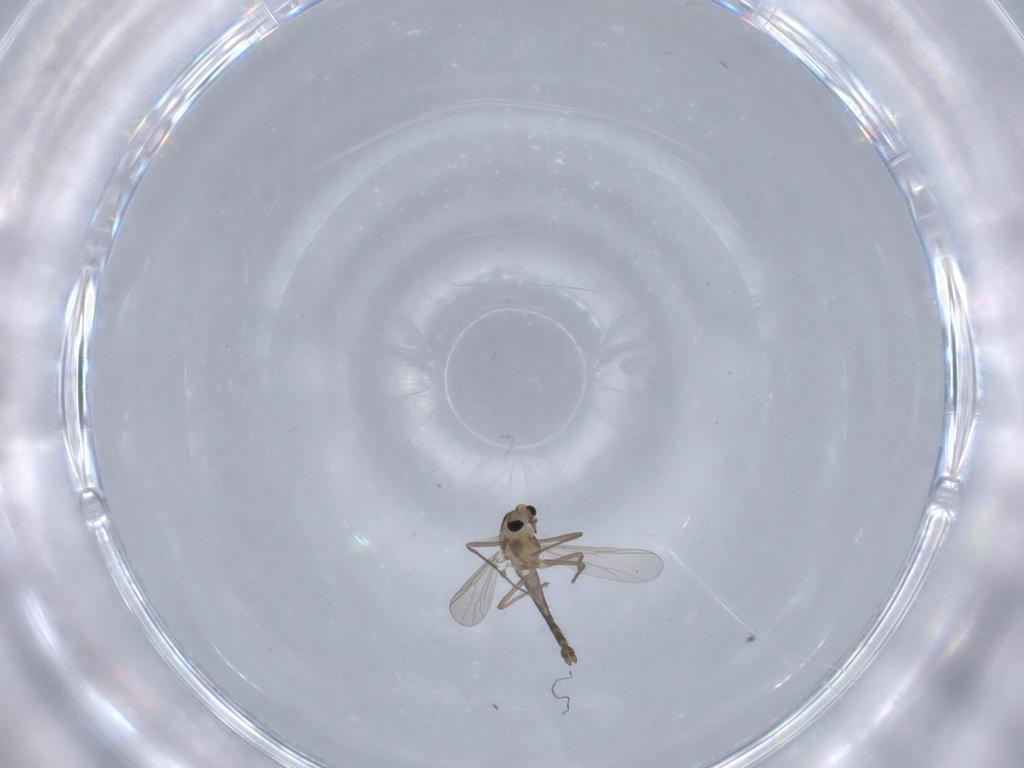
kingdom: Animalia
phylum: Arthropoda
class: Insecta
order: Diptera
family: Chironomidae
